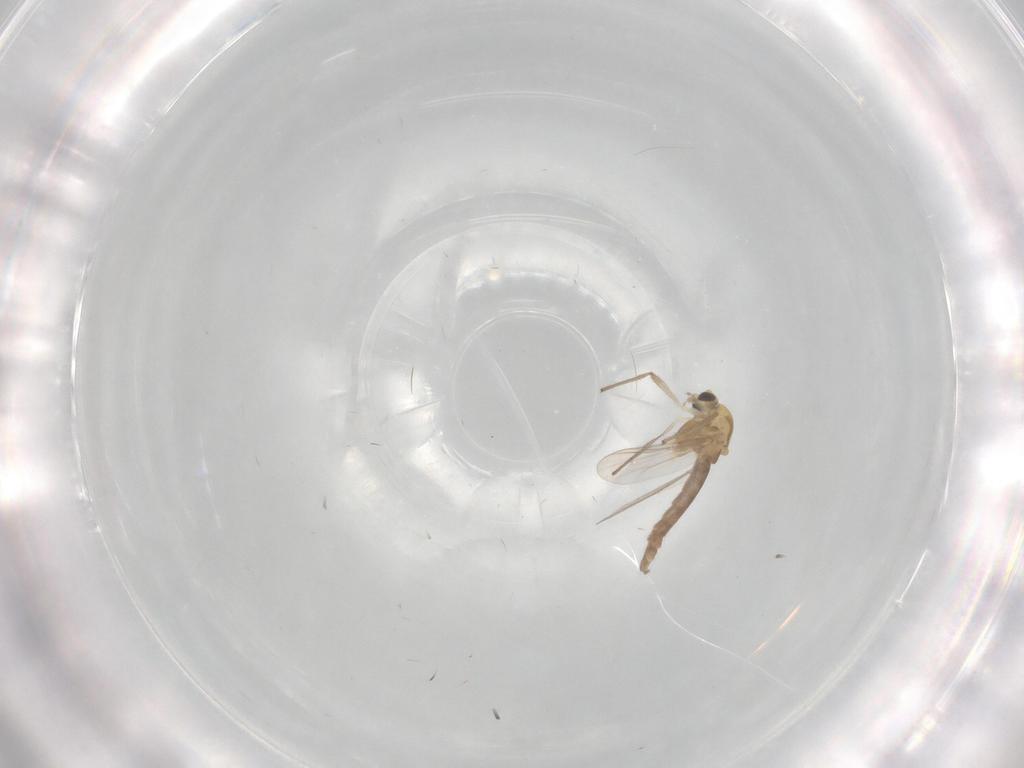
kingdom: Animalia
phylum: Arthropoda
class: Insecta
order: Diptera
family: Chironomidae
